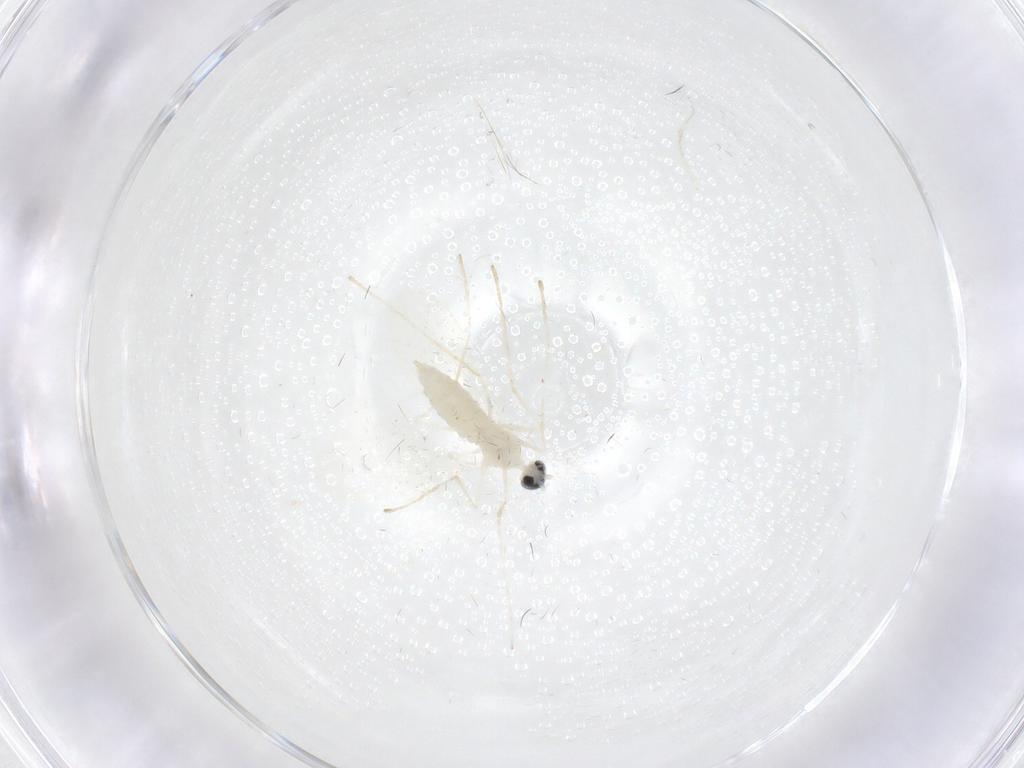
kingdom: Animalia
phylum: Arthropoda
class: Insecta
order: Diptera
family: Limoniidae
